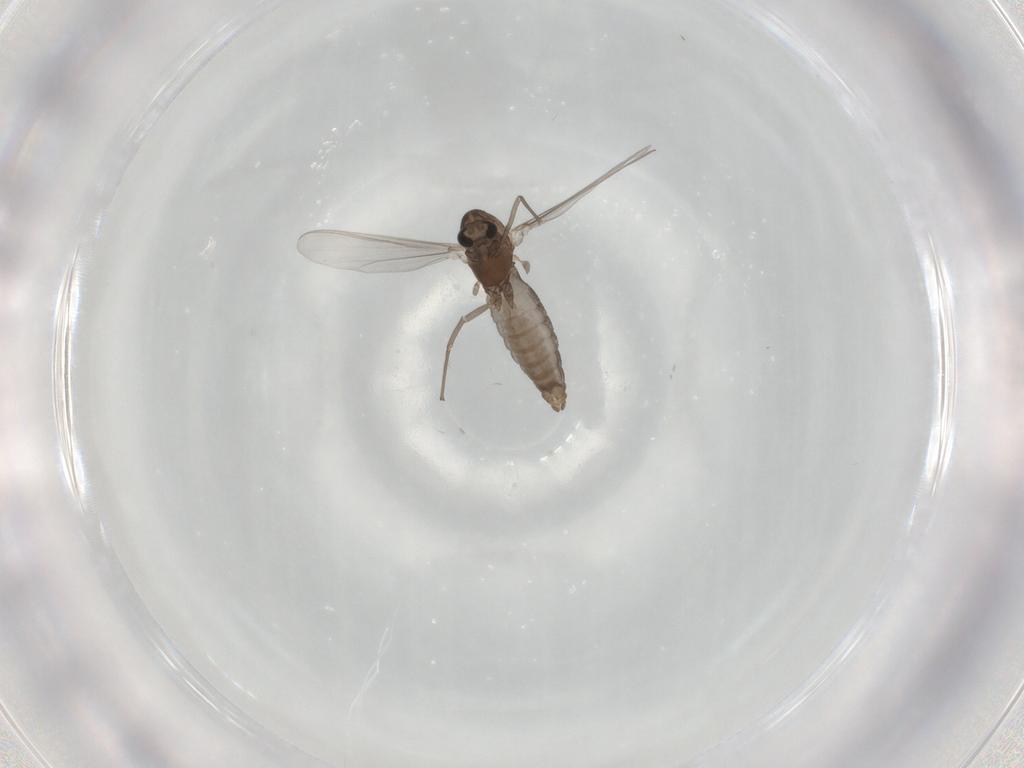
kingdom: Animalia
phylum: Arthropoda
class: Insecta
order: Diptera
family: Chironomidae
